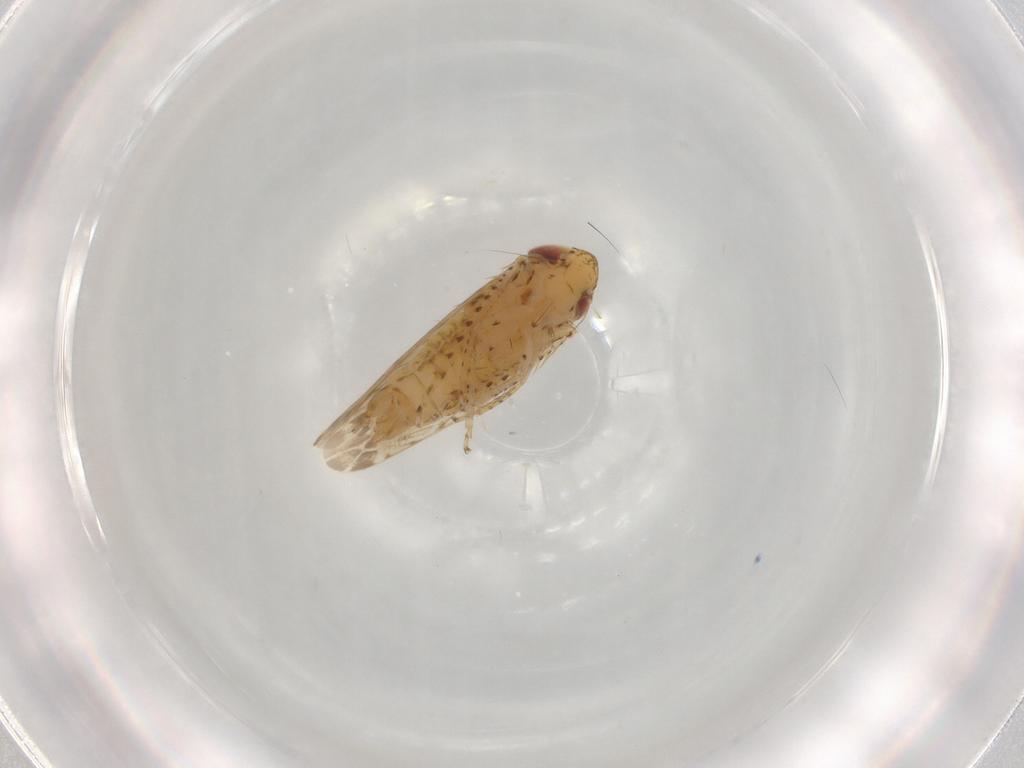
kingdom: Animalia
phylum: Arthropoda
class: Insecta
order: Hemiptera
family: Cicadellidae
